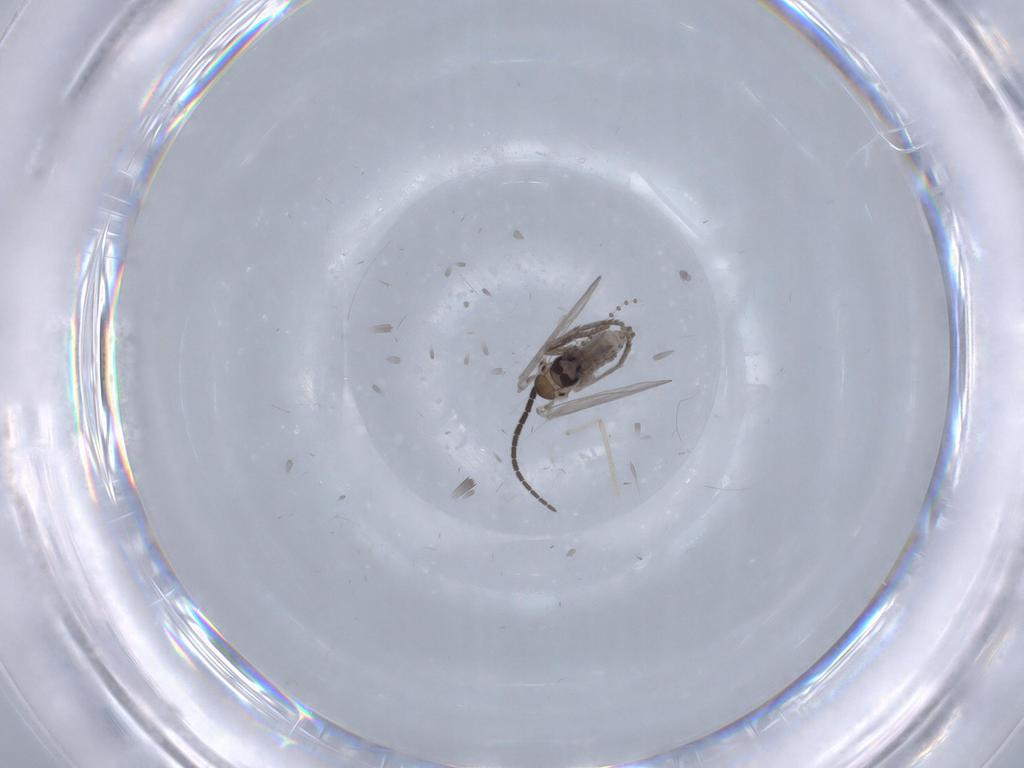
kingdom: Animalia
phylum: Arthropoda
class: Insecta
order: Diptera
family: Psychodidae
